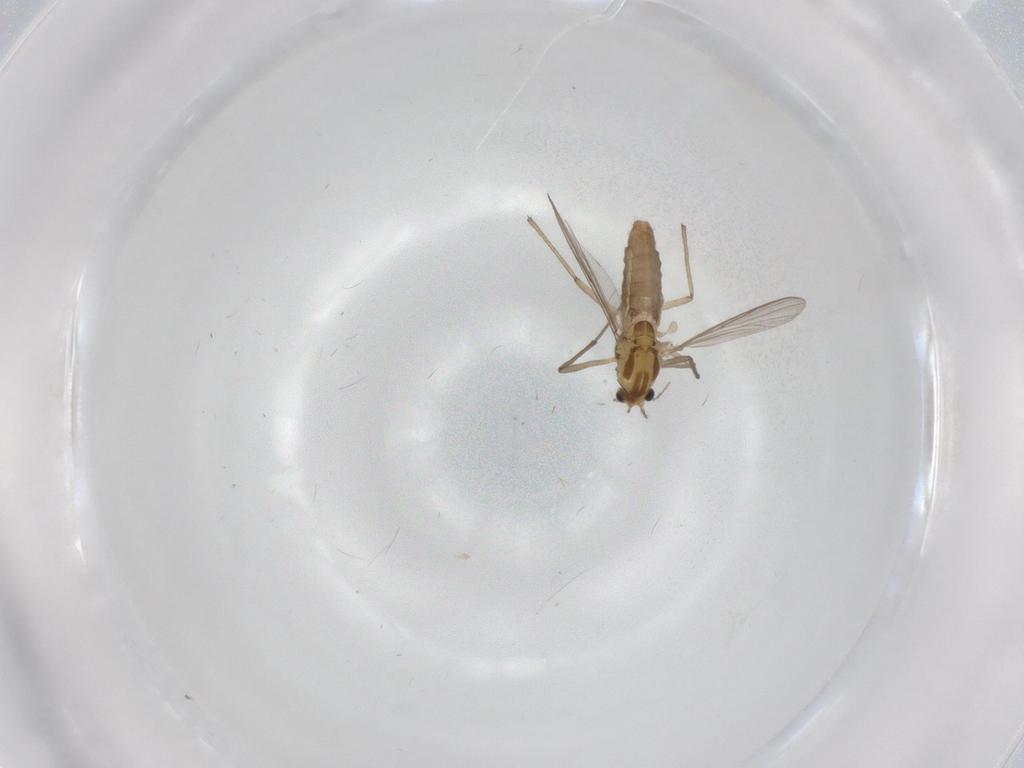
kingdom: Animalia
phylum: Arthropoda
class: Insecta
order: Diptera
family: Chironomidae
